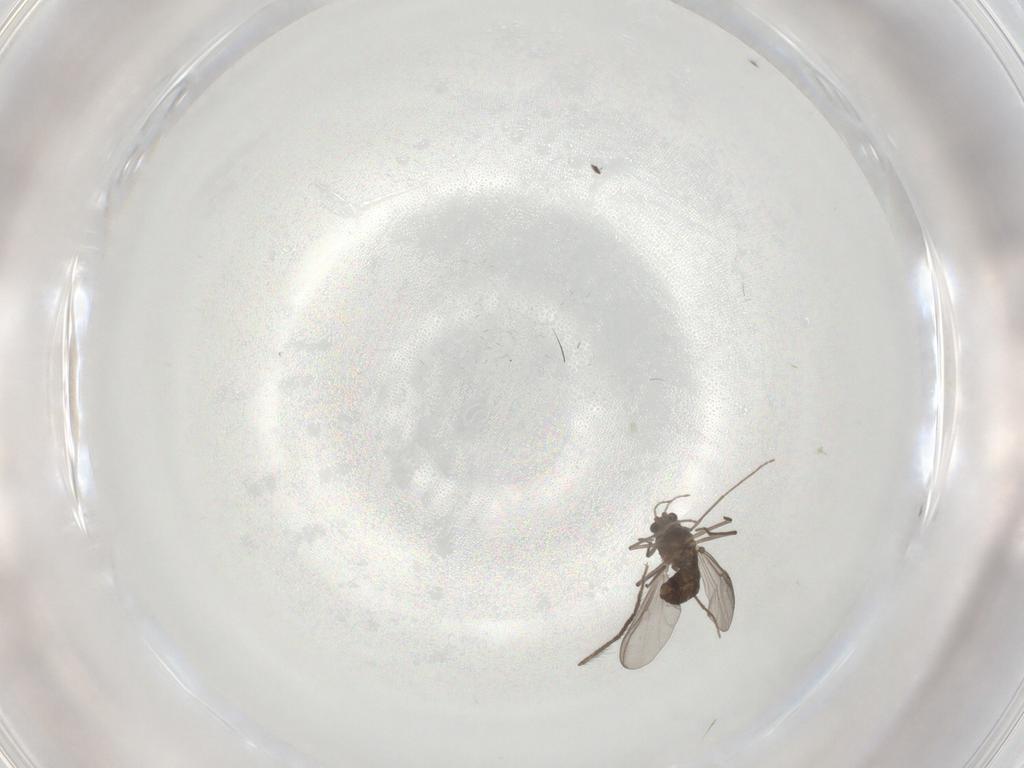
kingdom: Animalia
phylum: Arthropoda
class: Insecta
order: Diptera
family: Chironomidae
